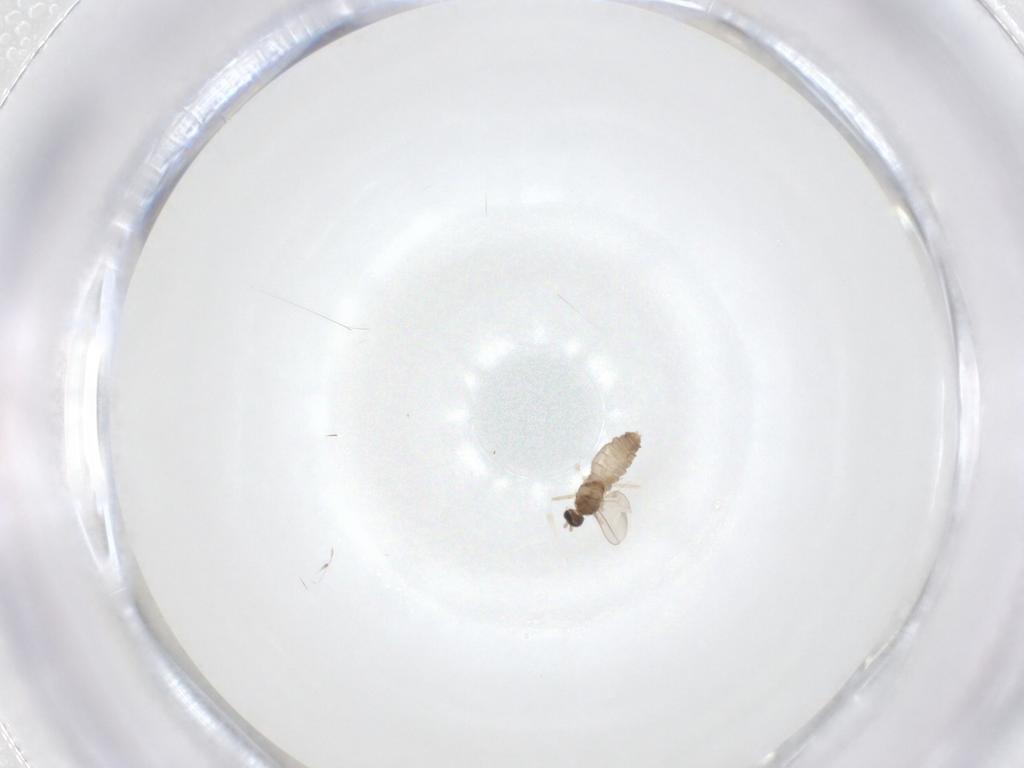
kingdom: Animalia
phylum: Arthropoda
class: Insecta
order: Diptera
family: Cecidomyiidae
